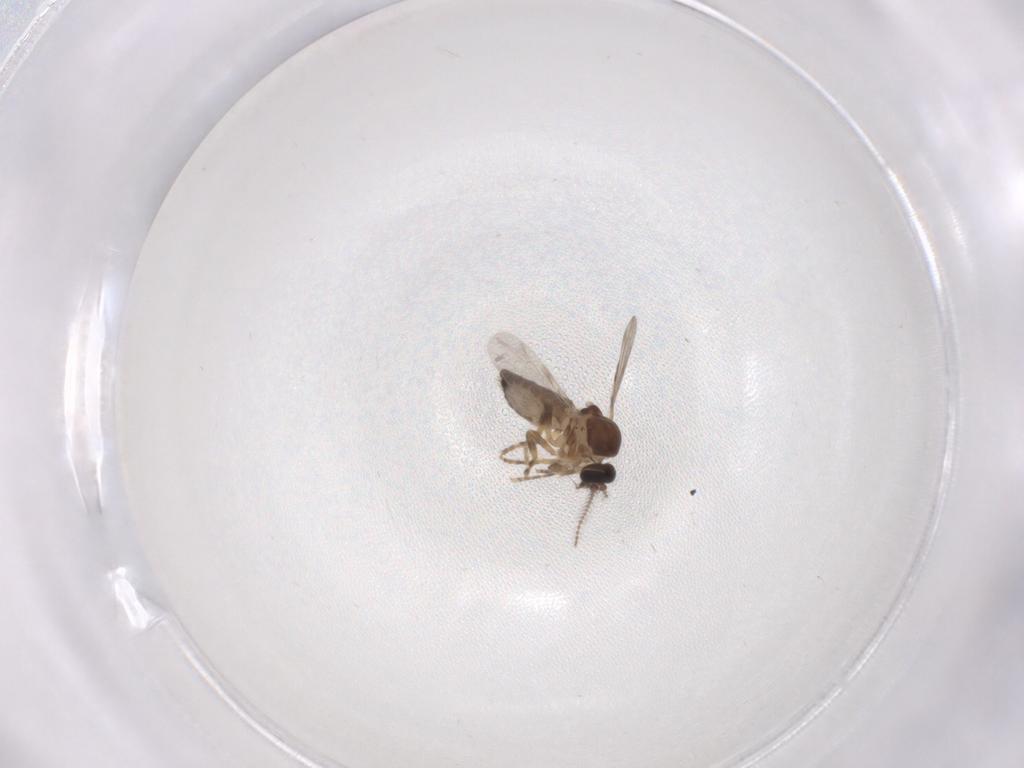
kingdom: Animalia
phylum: Arthropoda
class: Insecta
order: Diptera
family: Ceratopogonidae
